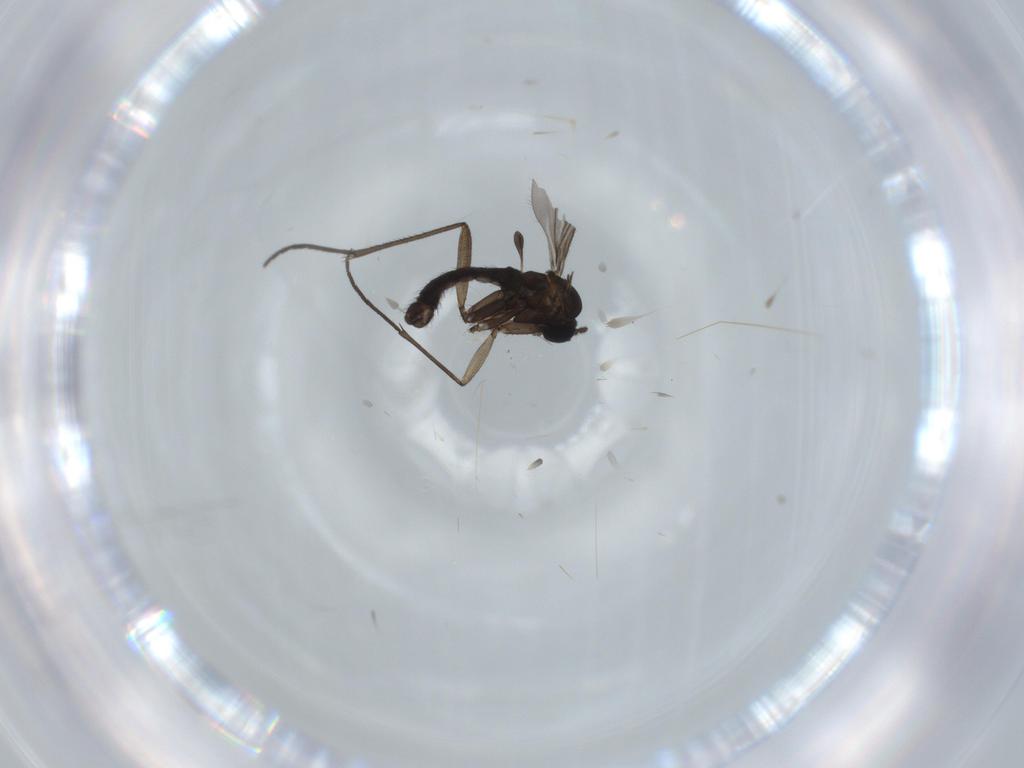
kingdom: Animalia
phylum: Arthropoda
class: Insecta
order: Diptera
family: Sciaridae
